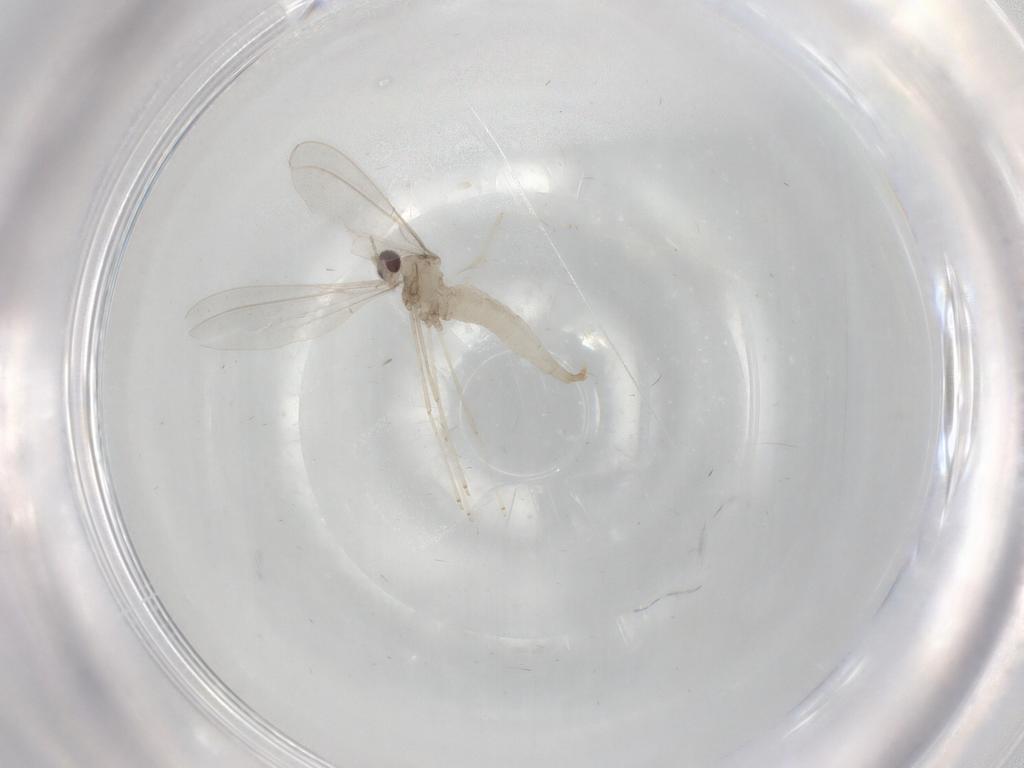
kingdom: Animalia
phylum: Arthropoda
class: Insecta
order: Diptera
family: Cecidomyiidae
